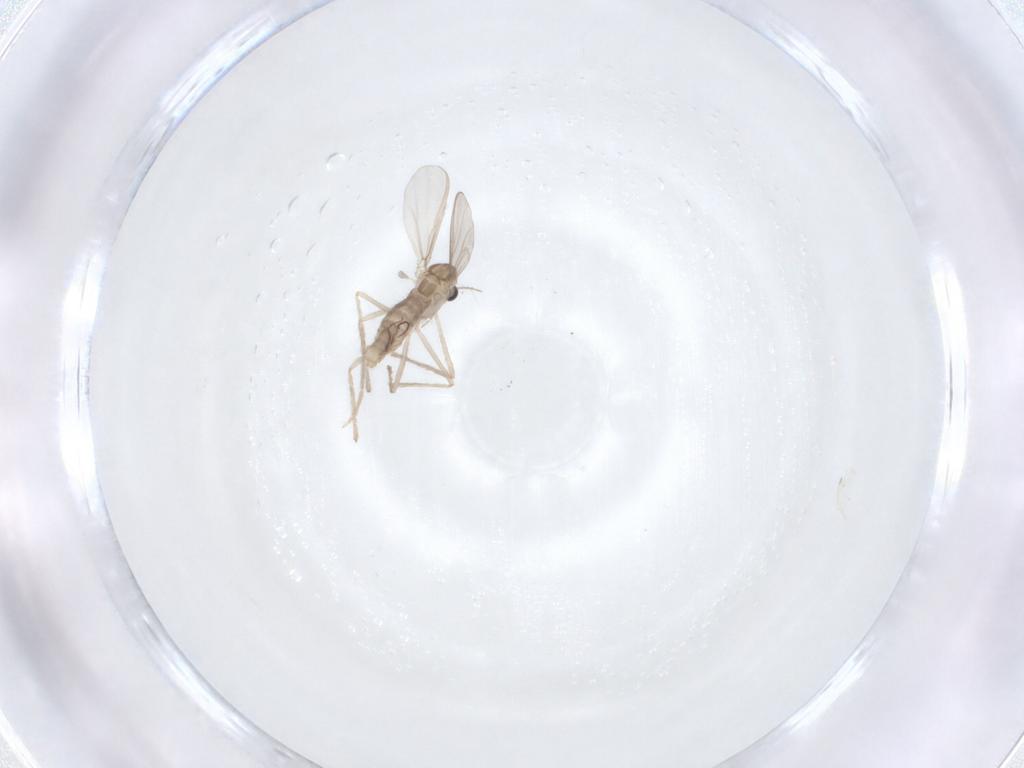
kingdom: Animalia
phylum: Arthropoda
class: Insecta
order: Diptera
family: Chironomidae
